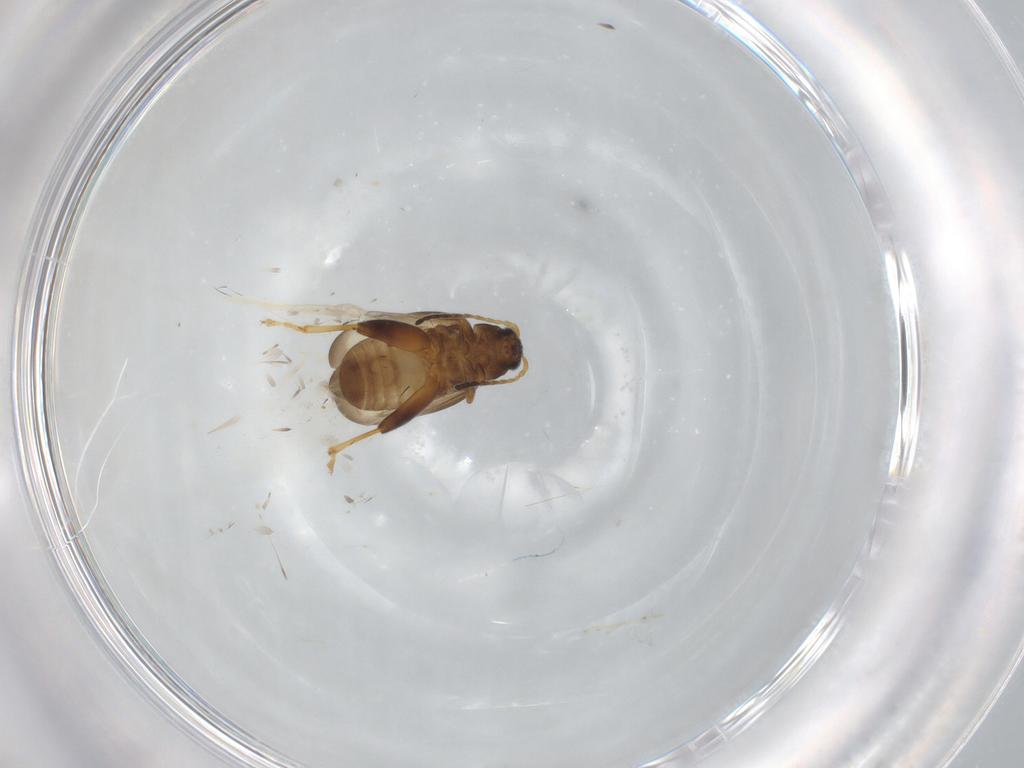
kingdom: Animalia
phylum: Arthropoda
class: Insecta
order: Coleoptera
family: Chrysomelidae
